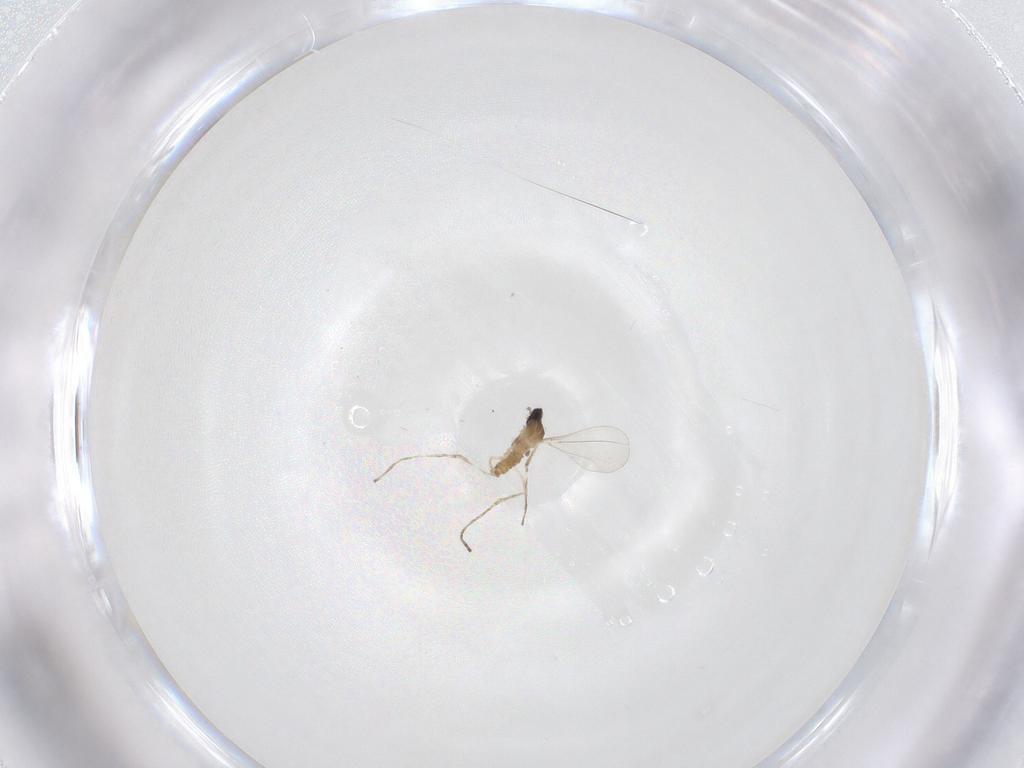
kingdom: Animalia
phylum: Arthropoda
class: Insecta
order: Diptera
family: Cecidomyiidae
